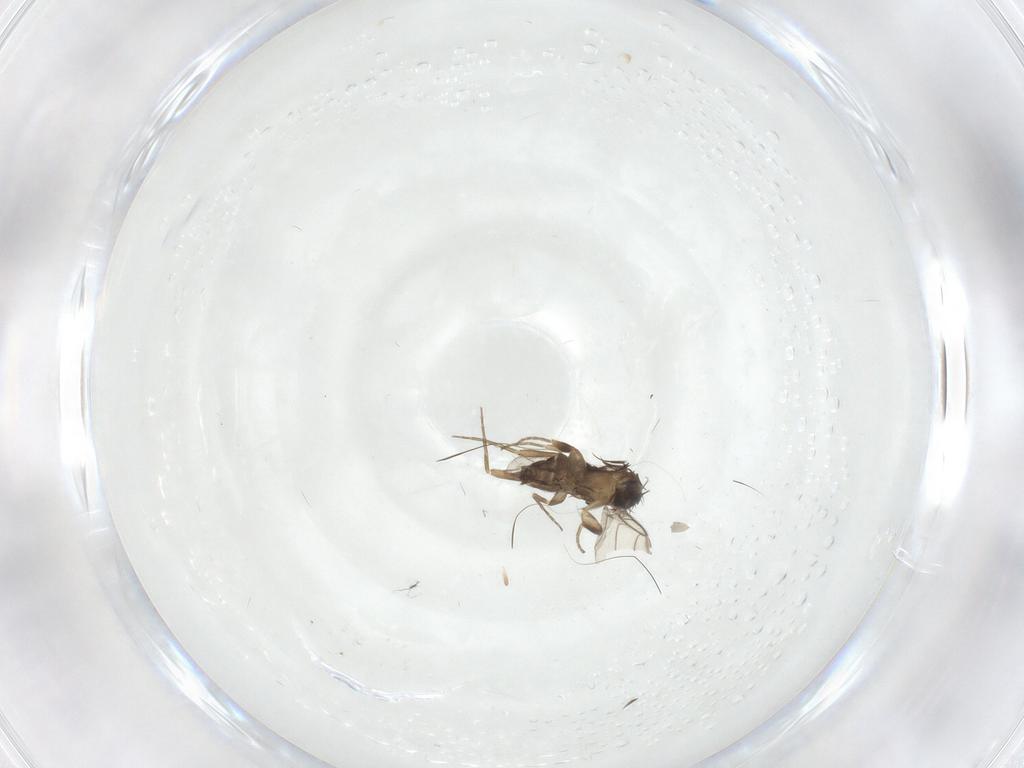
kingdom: Animalia
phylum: Arthropoda
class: Insecta
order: Diptera
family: Phoridae
